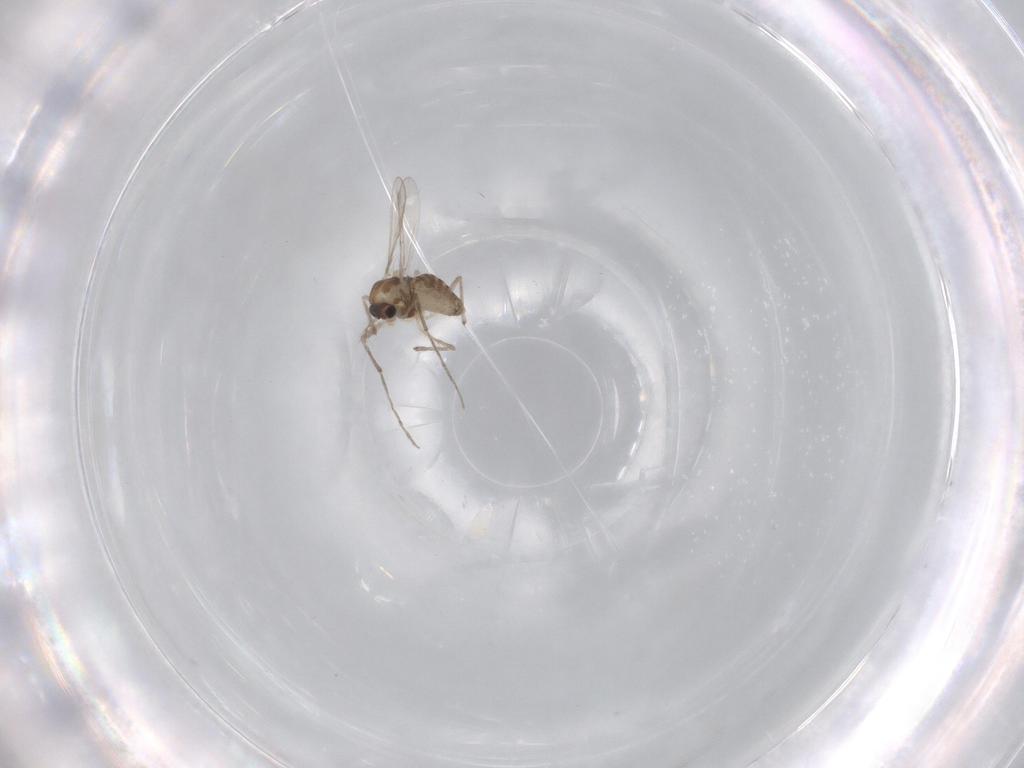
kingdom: Animalia
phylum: Arthropoda
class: Insecta
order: Diptera
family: Chironomidae
